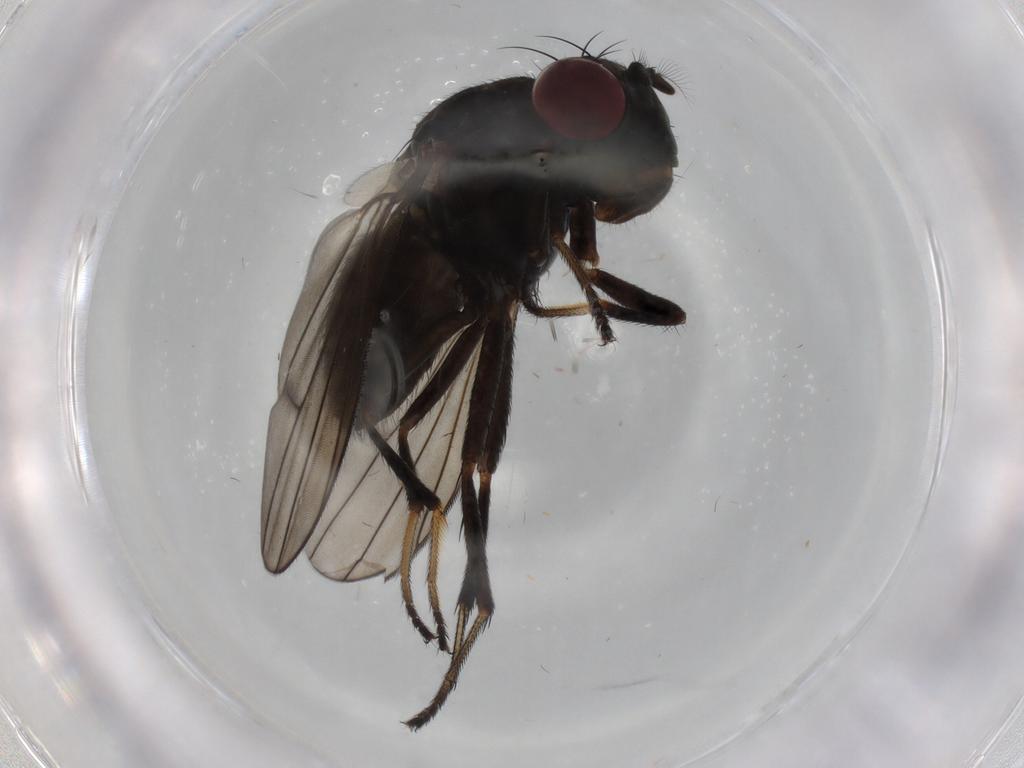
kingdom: Animalia
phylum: Arthropoda
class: Insecta
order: Diptera
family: Ephydridae
